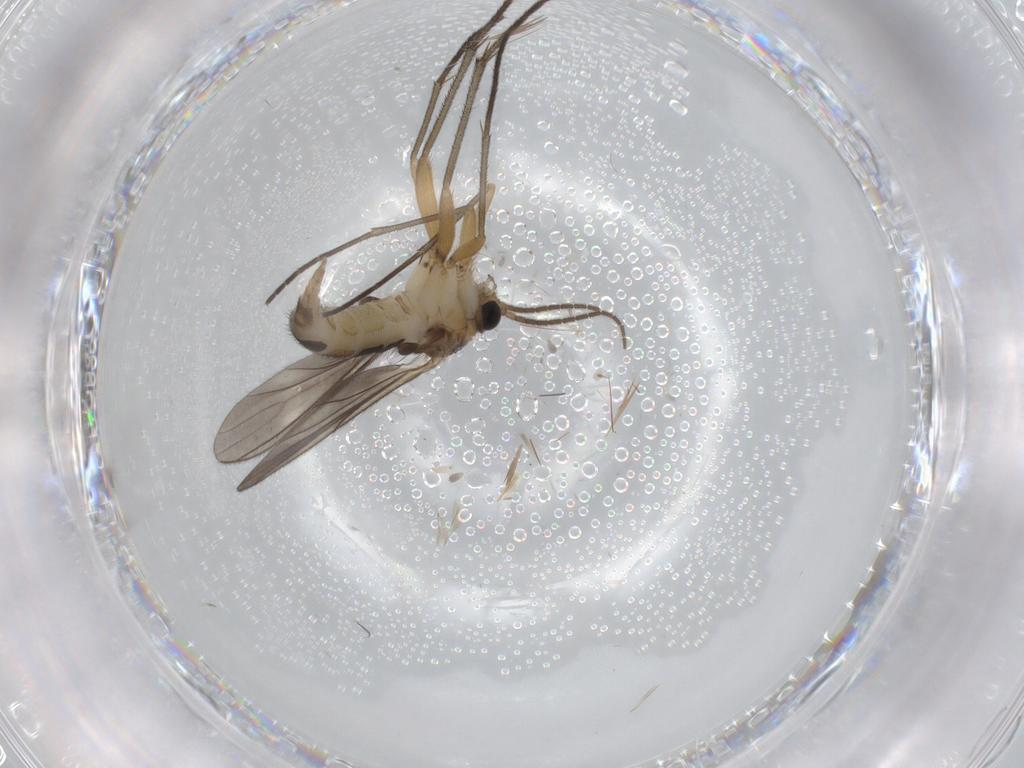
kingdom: Animalia
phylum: Arthropoda
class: Insecta
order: Diptera
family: Sciaridae
